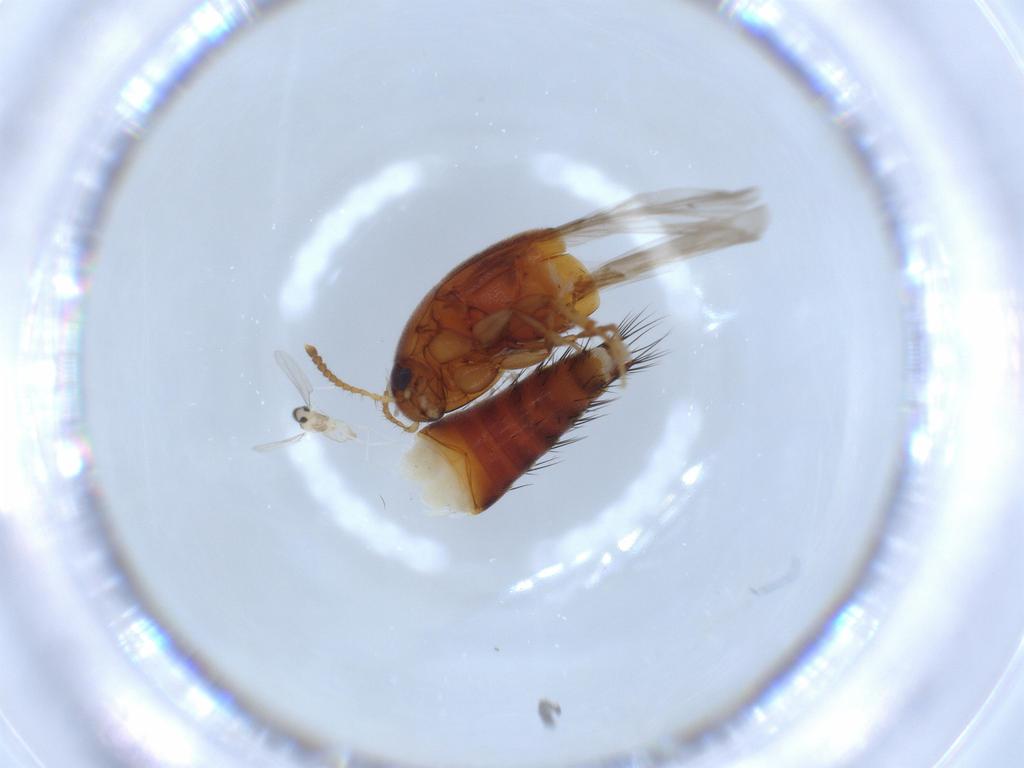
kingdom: Animalia
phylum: Arthropoda
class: Insecta
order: Coleoptera
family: Staphylinidae
